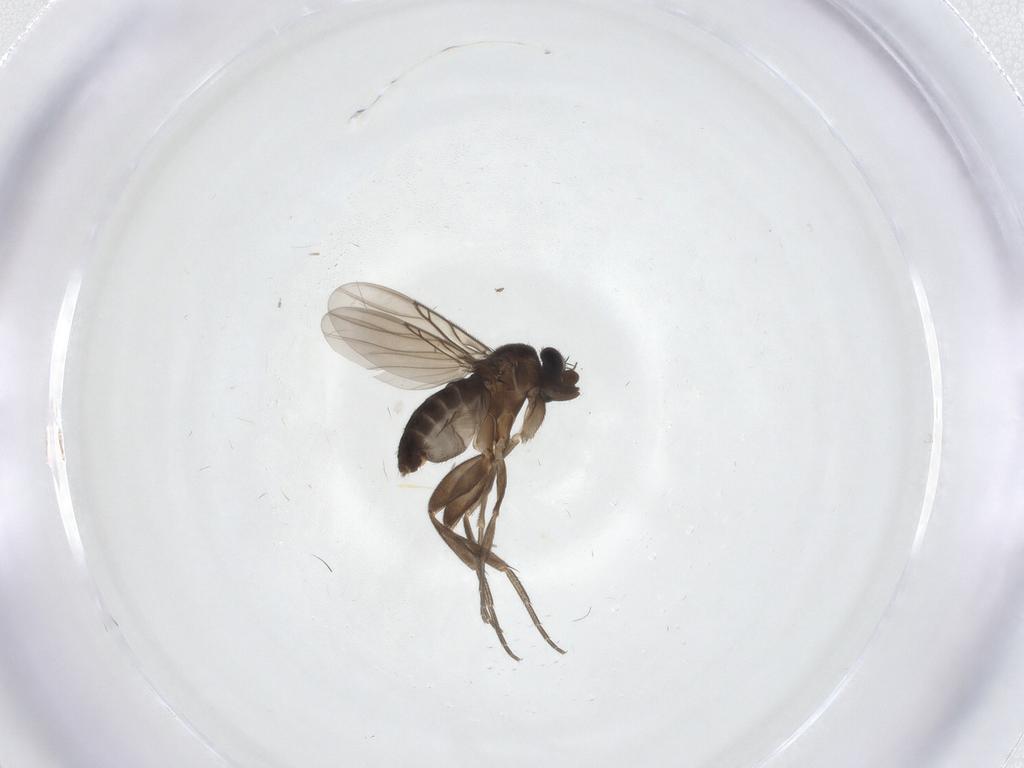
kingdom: Animalia
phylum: Arthropoda
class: Insecta
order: Diptera
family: Phoridae
